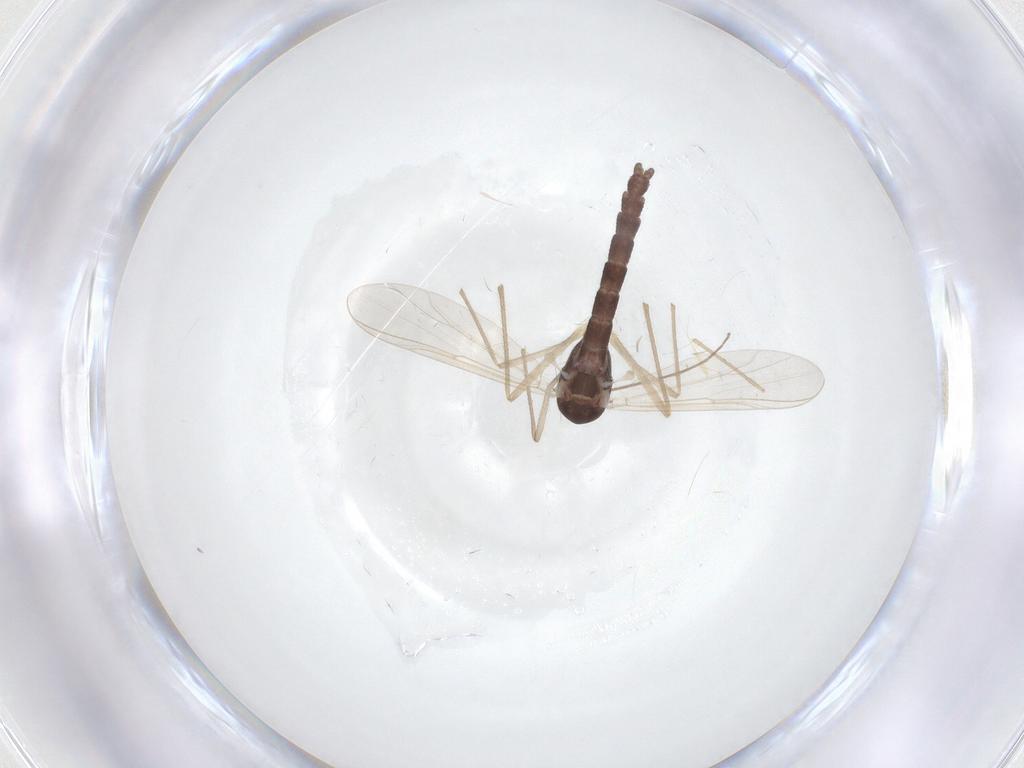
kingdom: Animalia
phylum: Arthropoda
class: Insecta
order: Diptera
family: Chironomidae
